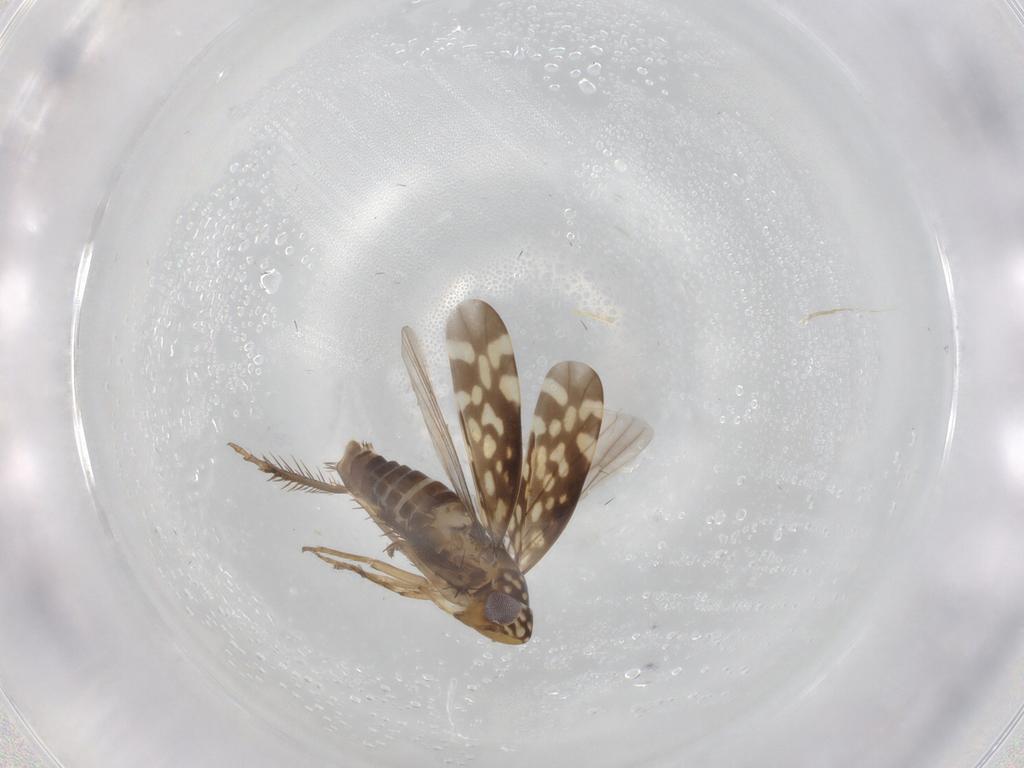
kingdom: Animalia
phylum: Arthropoda
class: Insecta
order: Hemiptera
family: Cicadellidae
